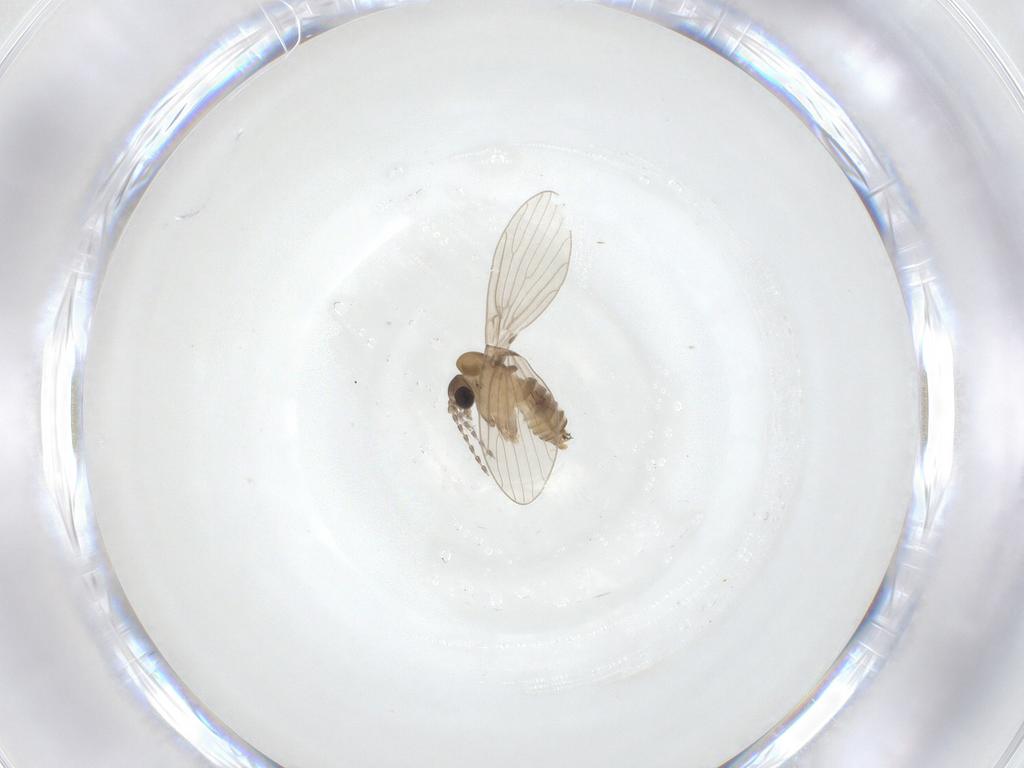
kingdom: Animalia
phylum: Arthropoda
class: Insecta
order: Diptera
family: Psychodidae
